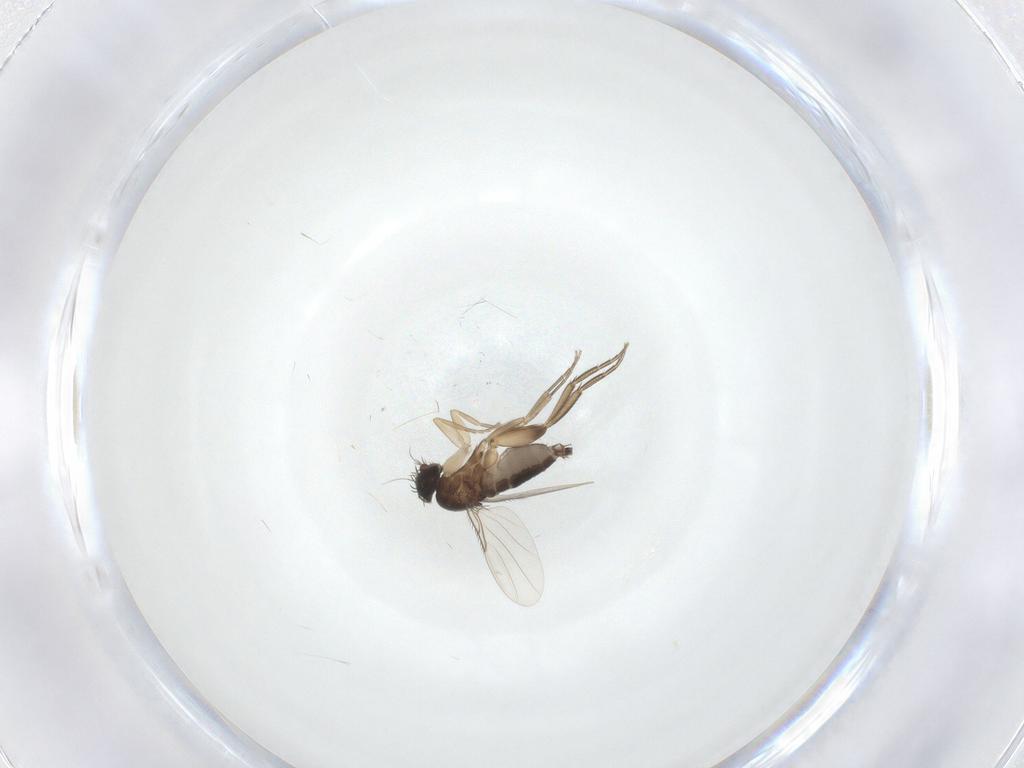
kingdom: Animalia
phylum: Arthropoda
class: Insecta
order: Diptera
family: Phoridae
